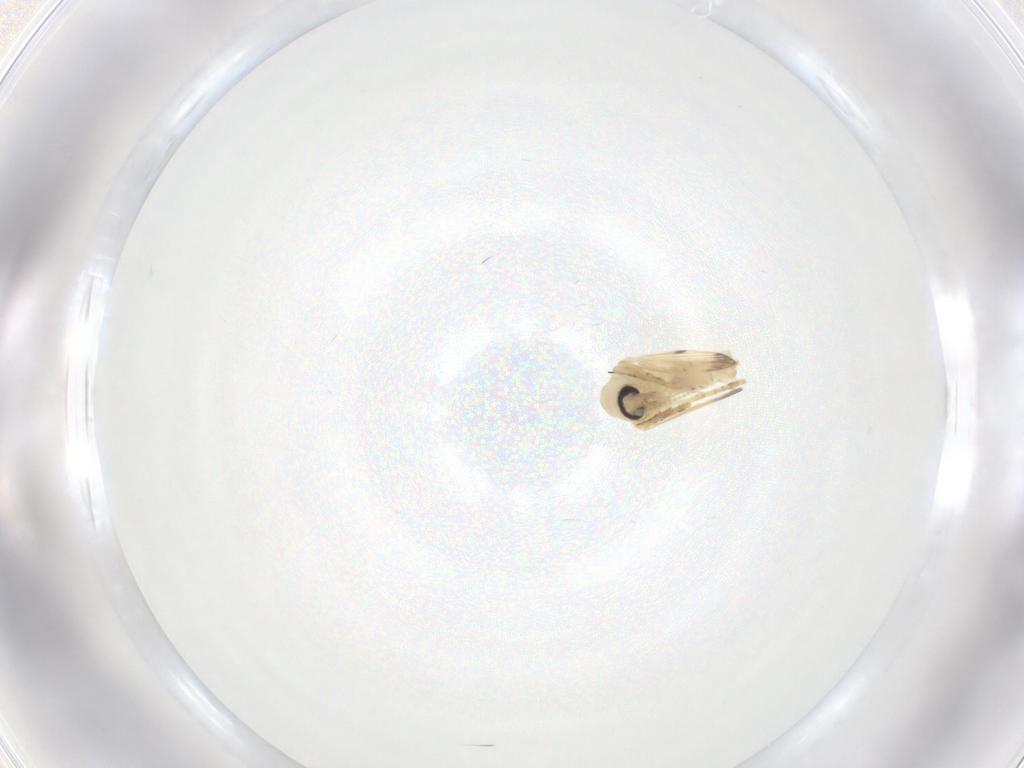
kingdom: Animalia
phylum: Arthropoda
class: Insecta
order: Diptera
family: Psychodidae
